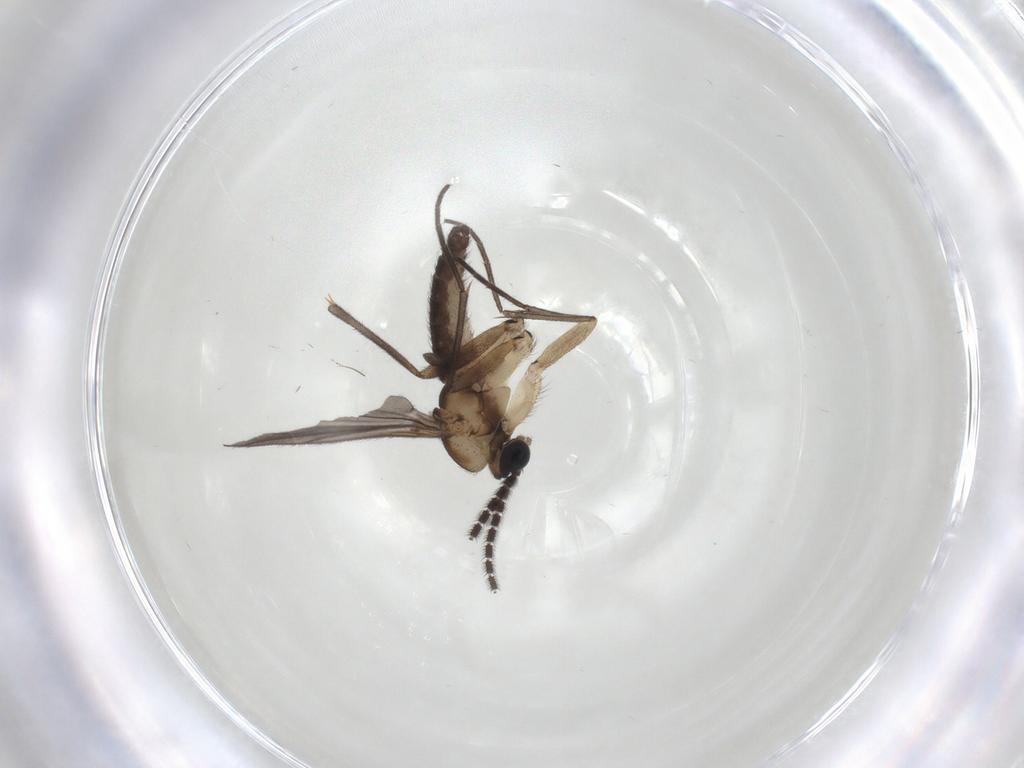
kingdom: Animalia
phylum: Arthropoda
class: Insecta
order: Diptera
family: Sciaridae
